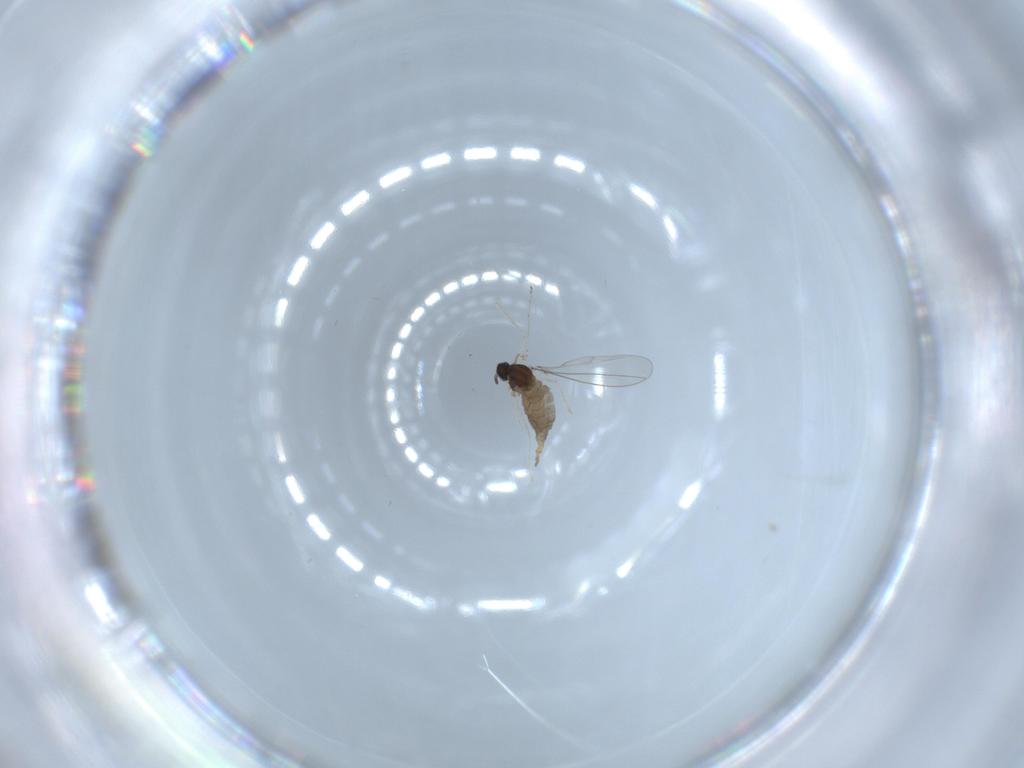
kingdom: Animalia
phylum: Arthropoda
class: Insecta
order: Diptera
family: Cecidomyiidae
